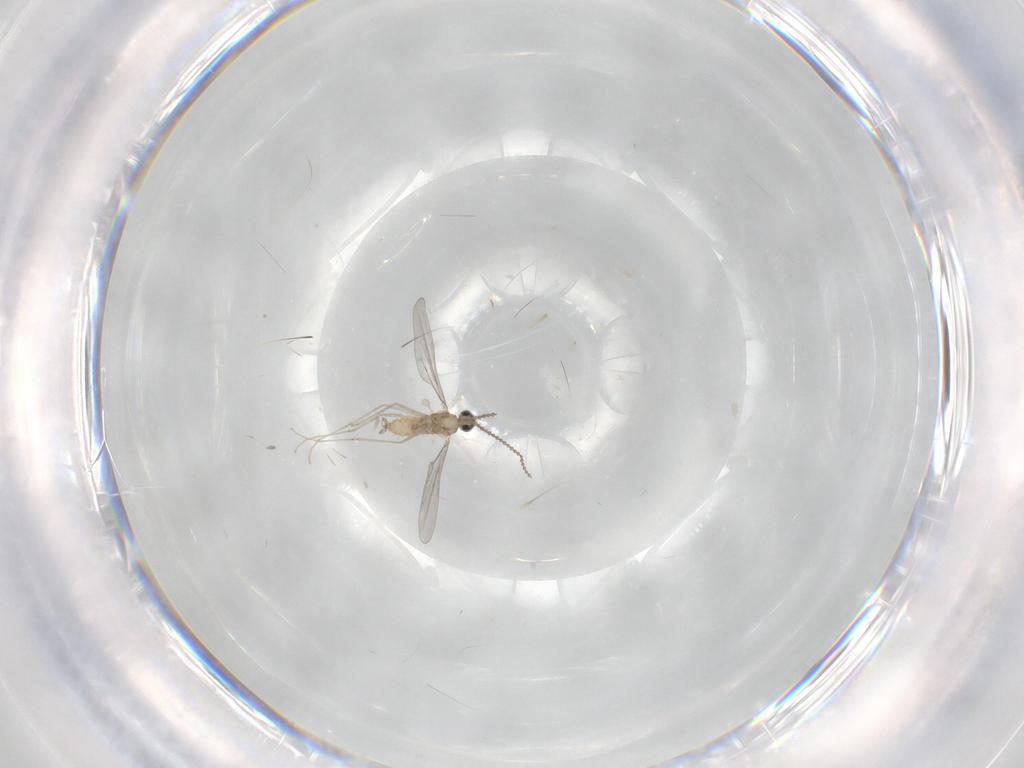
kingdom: Animalia
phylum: Arthropoda
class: Insecta
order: Diptera
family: Cecidomyiidae
